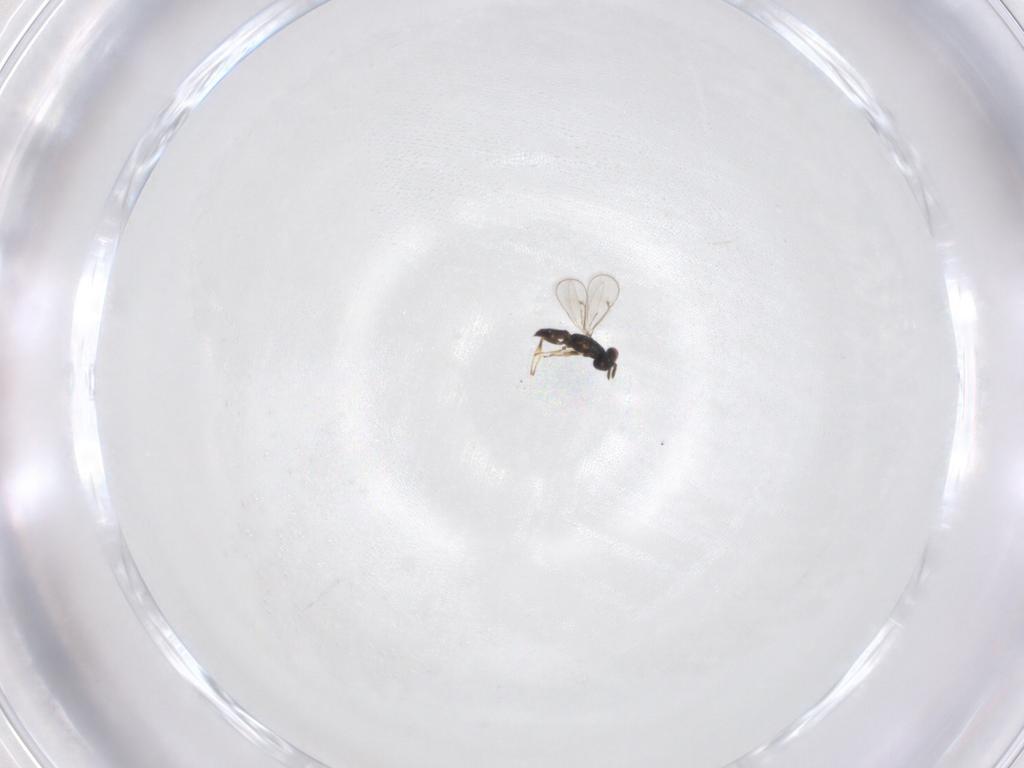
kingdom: Animalia
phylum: Arthropoda
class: Insecta
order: Hymenoptera
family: Eulophidae
